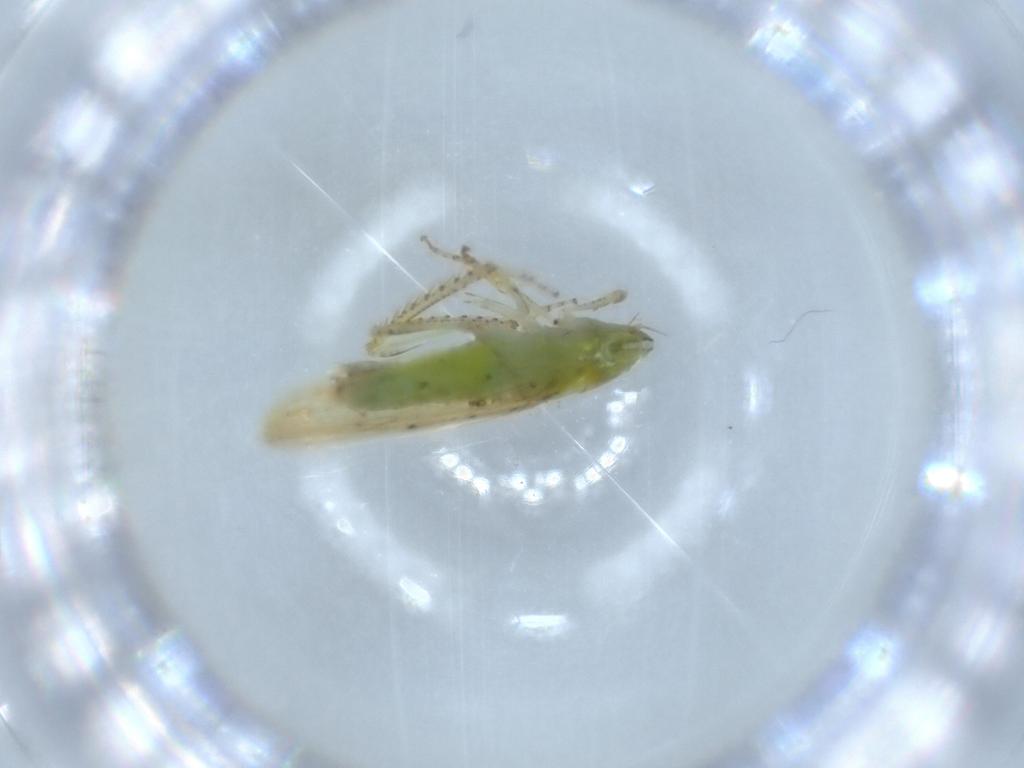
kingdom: Animalia
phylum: Arthropoda
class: Insecta
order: Hemiptera
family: Cicadellidae
